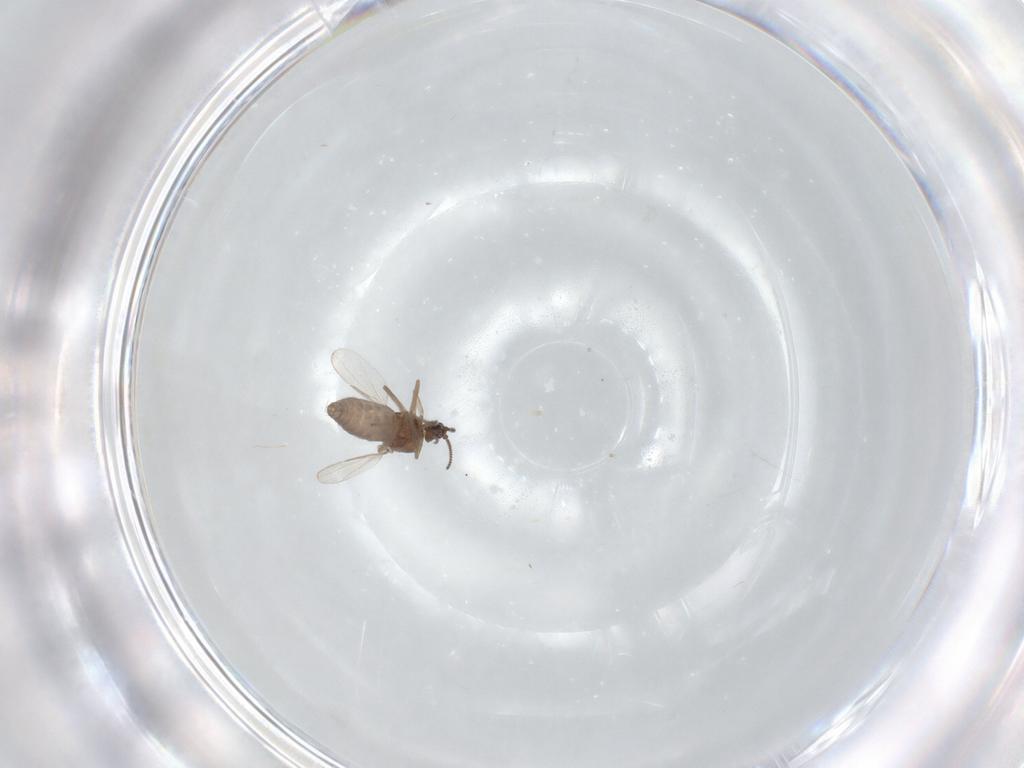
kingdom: Animalia
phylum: Arthropoda
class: Insecta
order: Diptera
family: Phoridae
